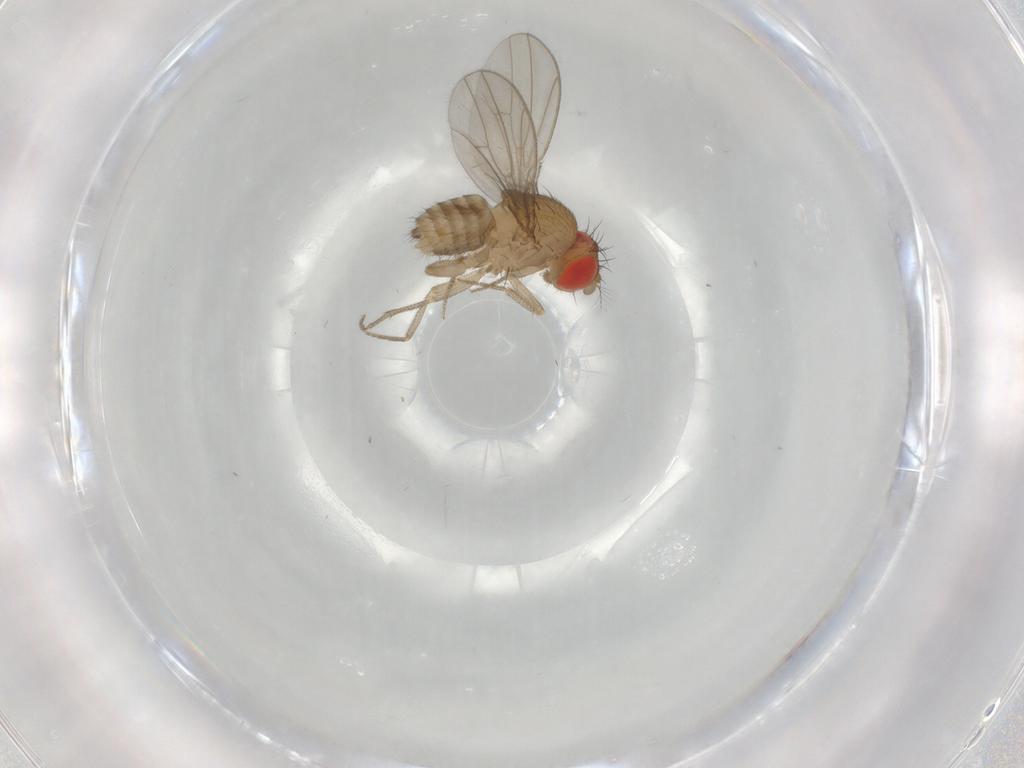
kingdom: Animalia
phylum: Arthropoda
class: Insecta
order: Diptera
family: Drosophilidae
